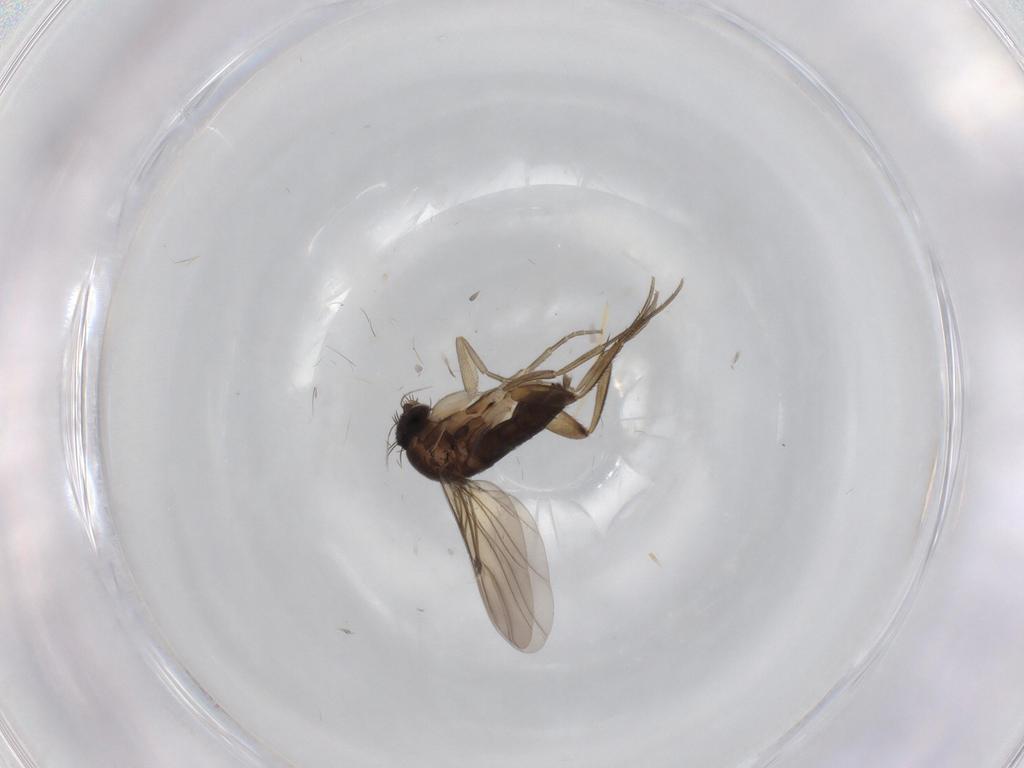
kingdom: Animalia
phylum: Arthropoda
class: Insecta
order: Diptera
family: Chironomidae
